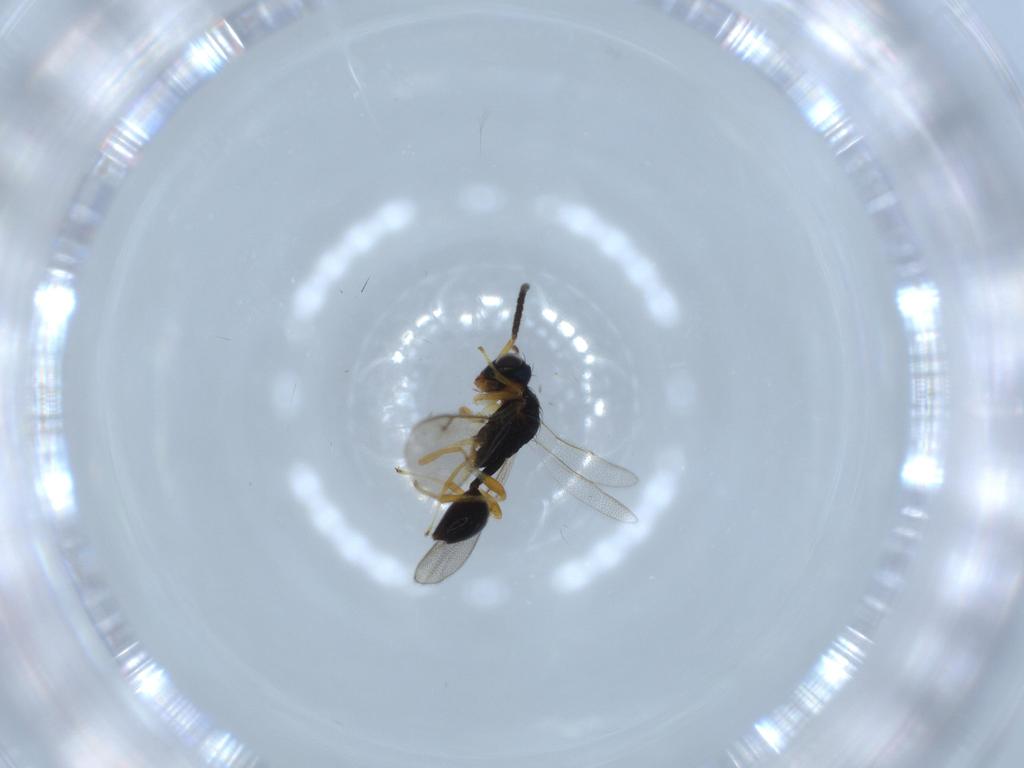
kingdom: Animalia
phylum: Arthropoda
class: Insecta
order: Hymenoptera
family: Diparidae
